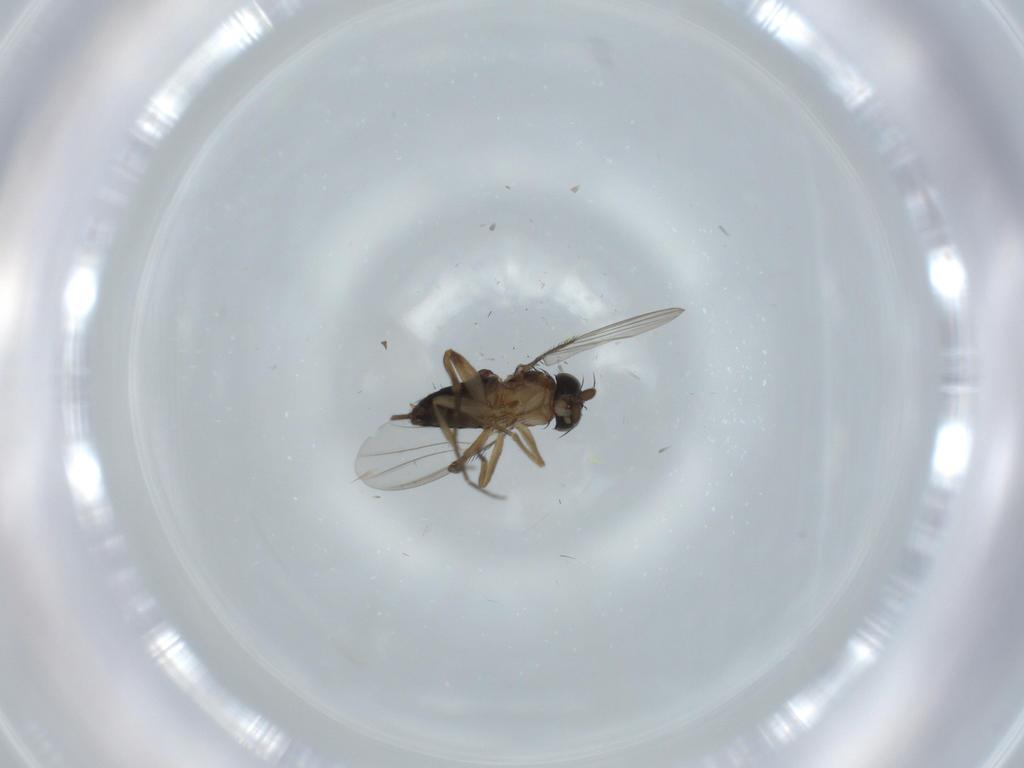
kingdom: Animalia
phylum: Arthropoda
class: Insecta
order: Diptera
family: Phoridae
